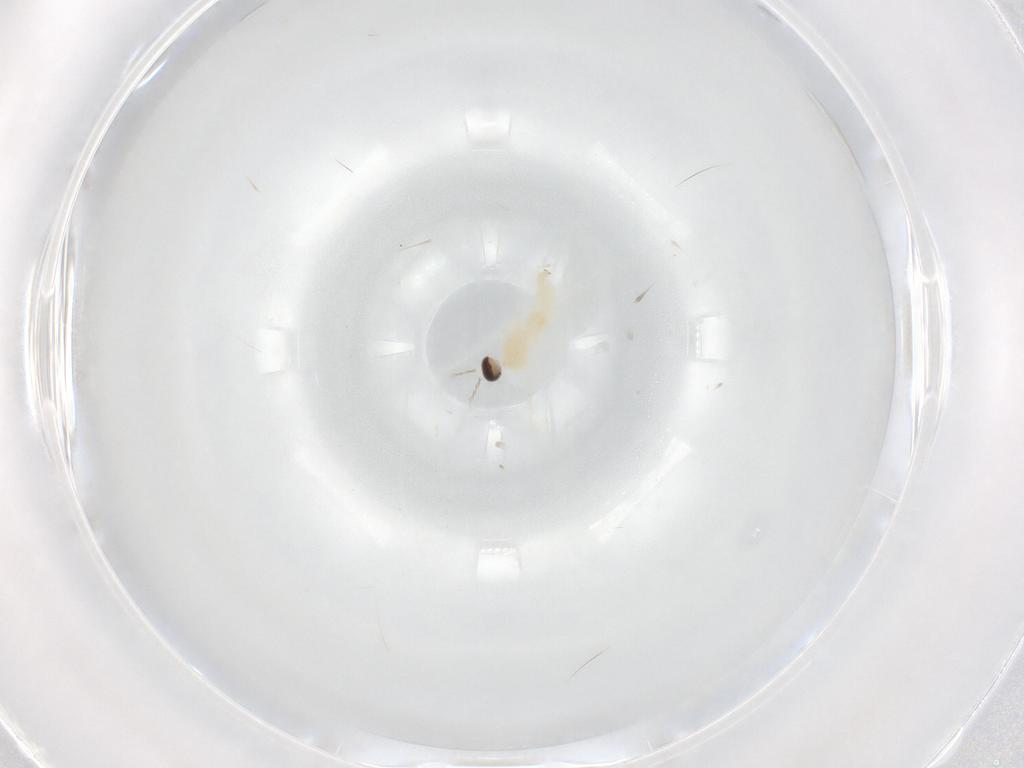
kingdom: Animalia
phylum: Arthropoda
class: Insecta
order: Diptera
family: Cecidomyiidae
